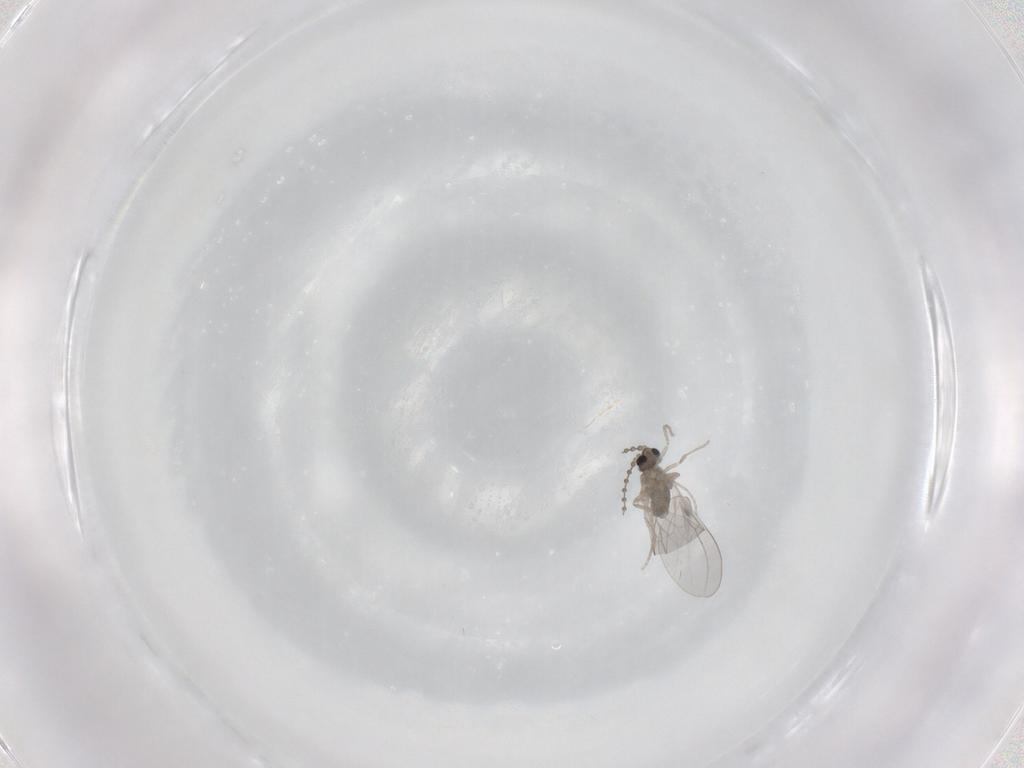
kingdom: Animalia
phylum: Arthropoda
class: Insecta
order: Diptera
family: Cecidomyiidae
